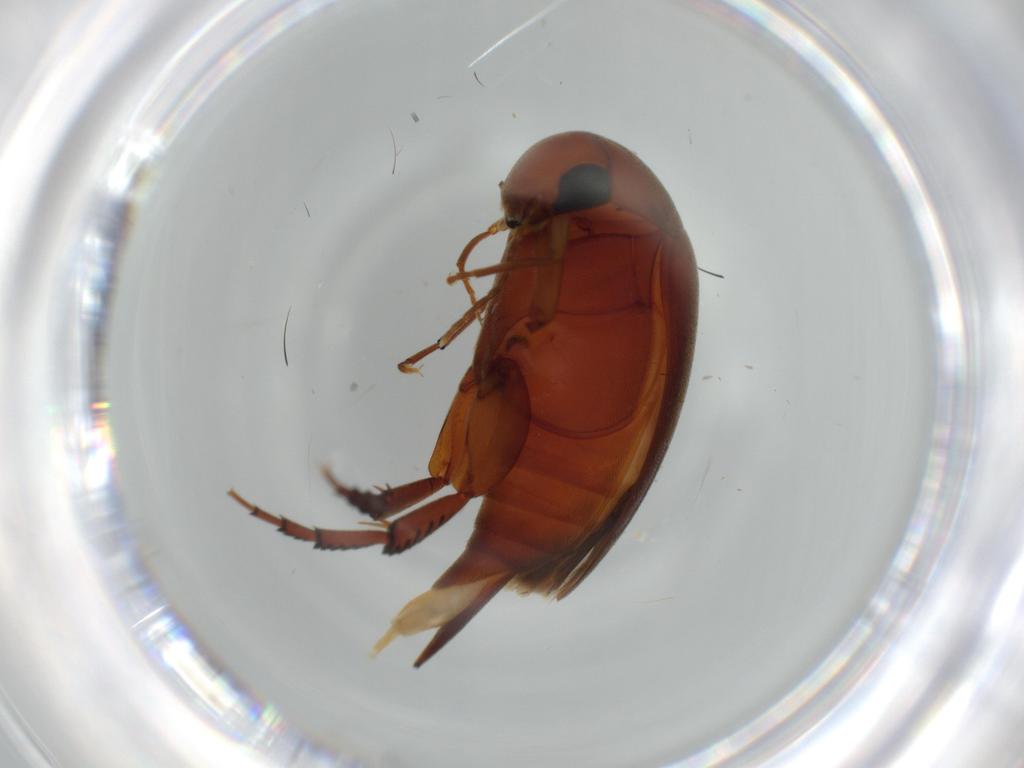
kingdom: Animalia
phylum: Arthropoda
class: Insecta
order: Coleoptera
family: Mordellidae
